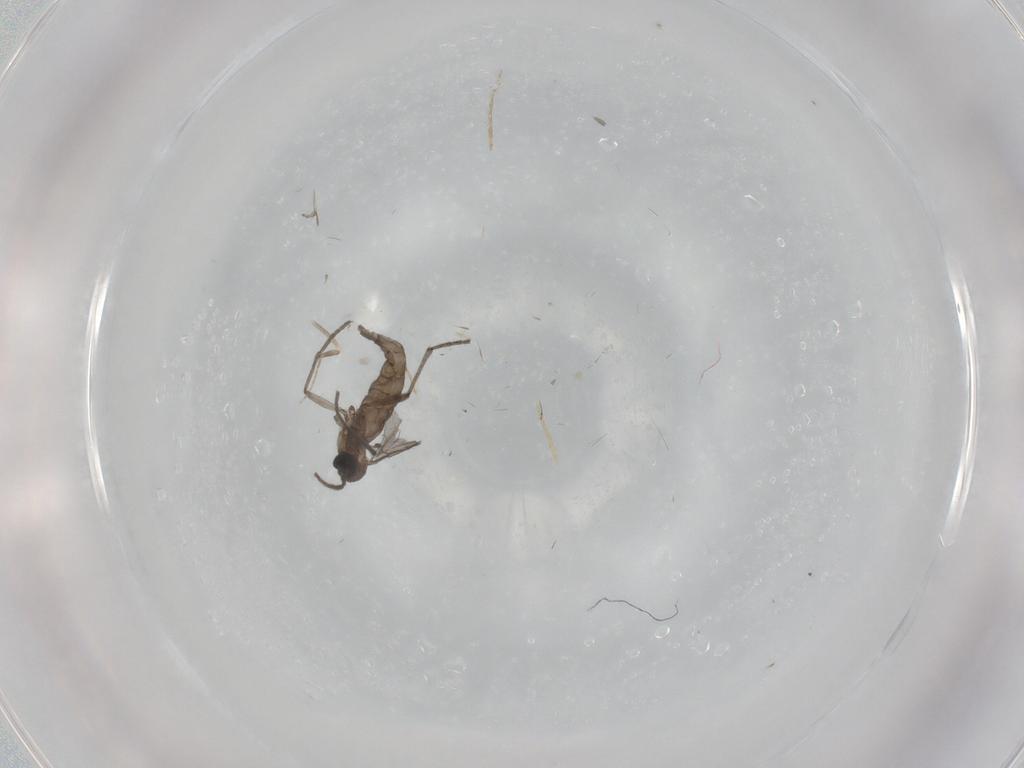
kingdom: Animalia
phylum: Arthropoda
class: Insecta
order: Diptera
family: Sciaridae
